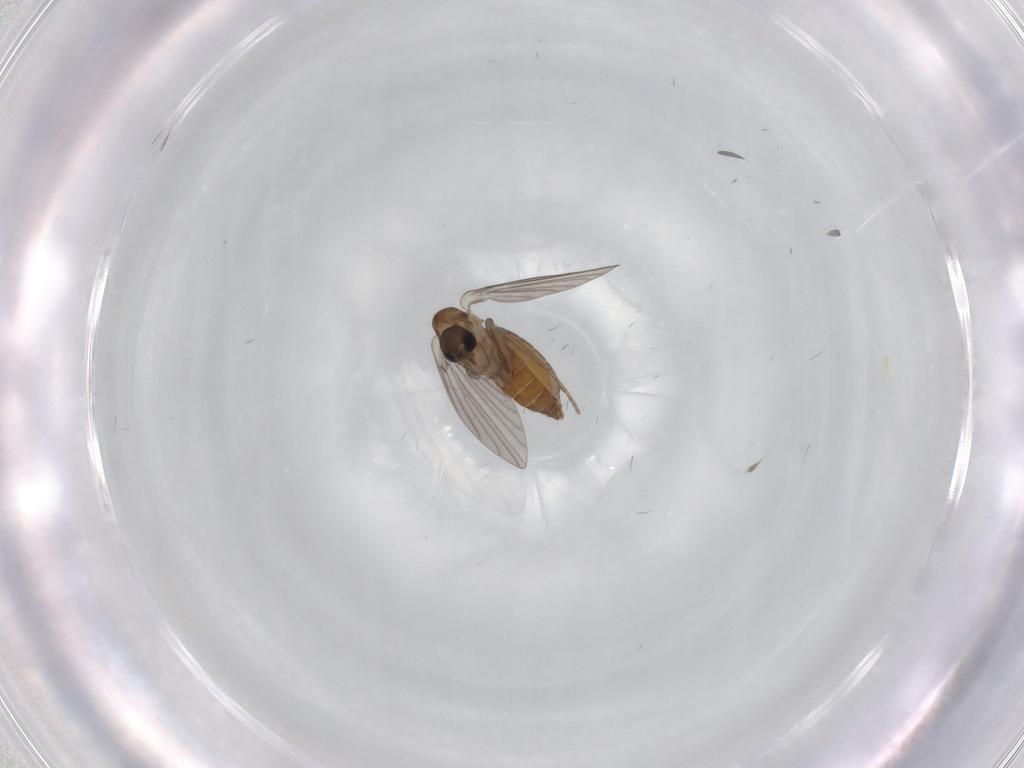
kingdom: Animalia
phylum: Arthropoda
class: Insecta
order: Diptera
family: Cecidomyiidae
